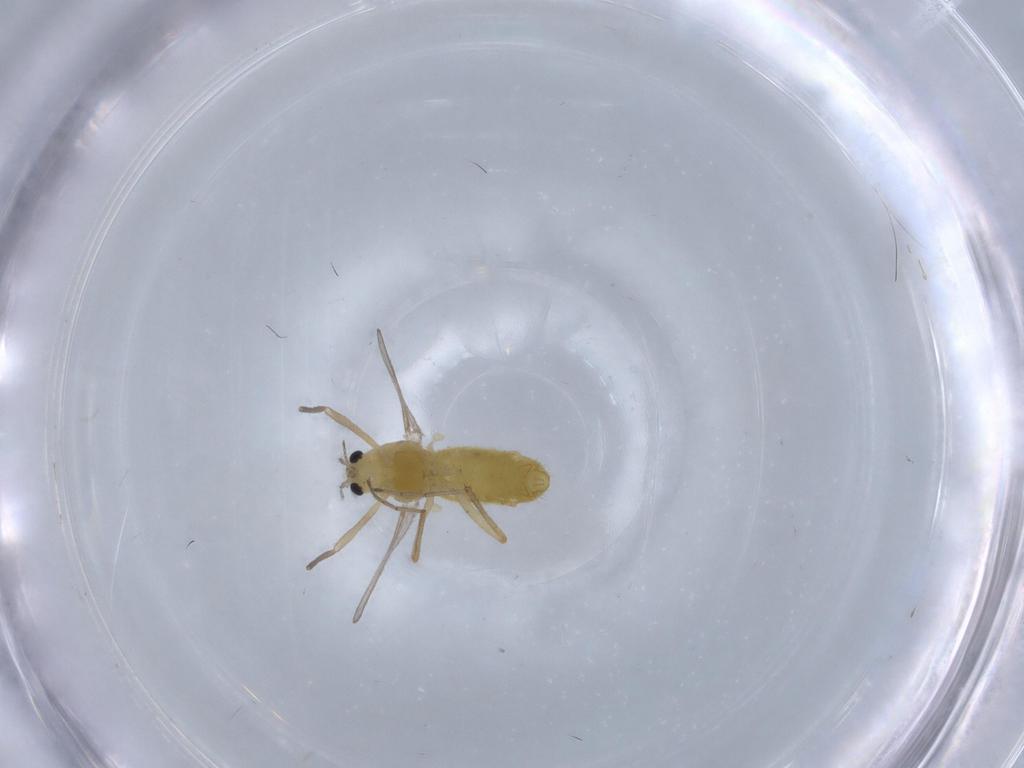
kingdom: Animalia
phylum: Arthropoda
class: Insecta
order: Diptera
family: Chironomidae
